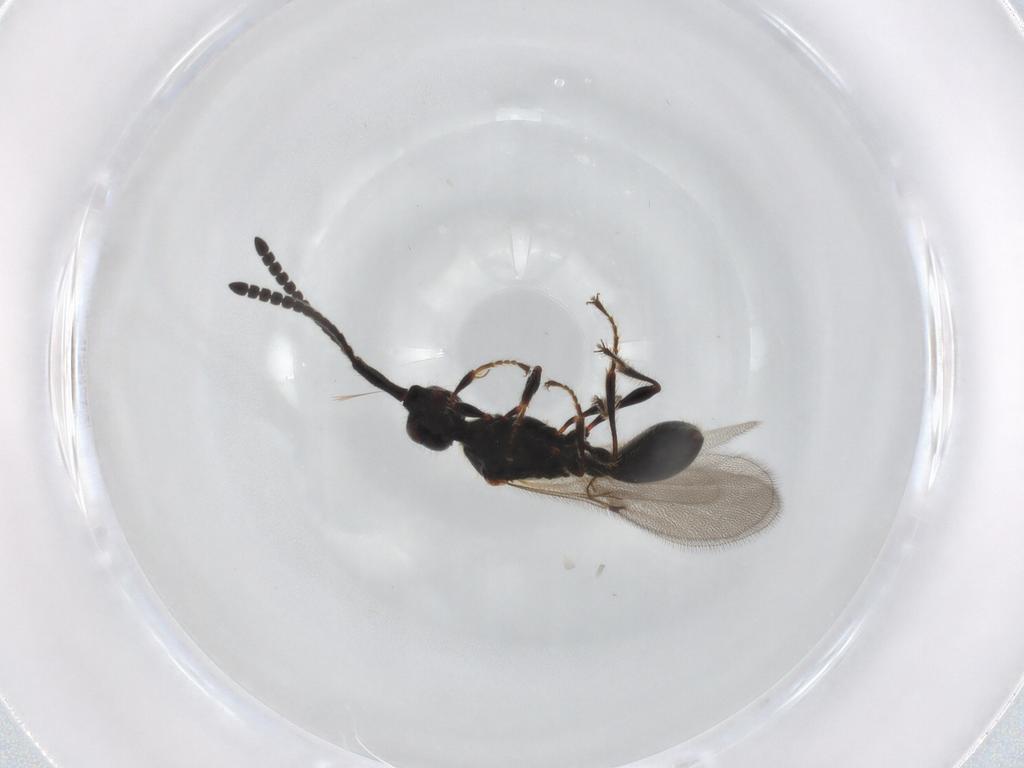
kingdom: Animalia
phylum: Arthropoda
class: Insecta
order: Hymenoptera
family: Diapriidae
